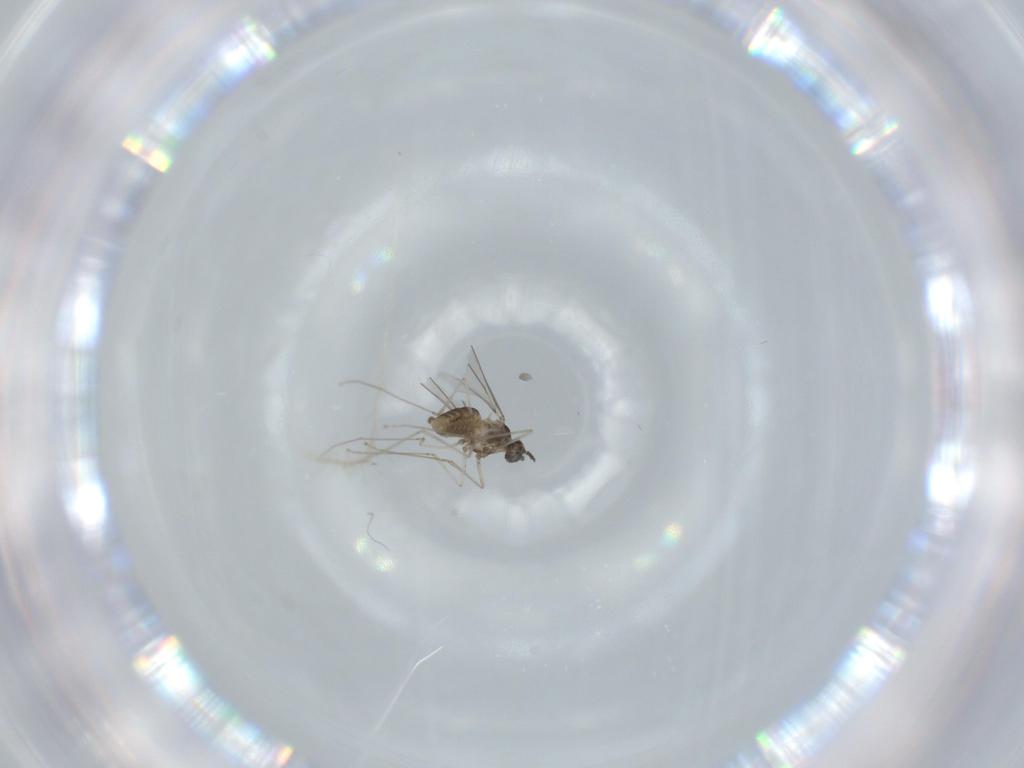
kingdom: Animalia
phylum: Arthropoda
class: Insecta
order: Diptera
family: Cecidomyiidae
